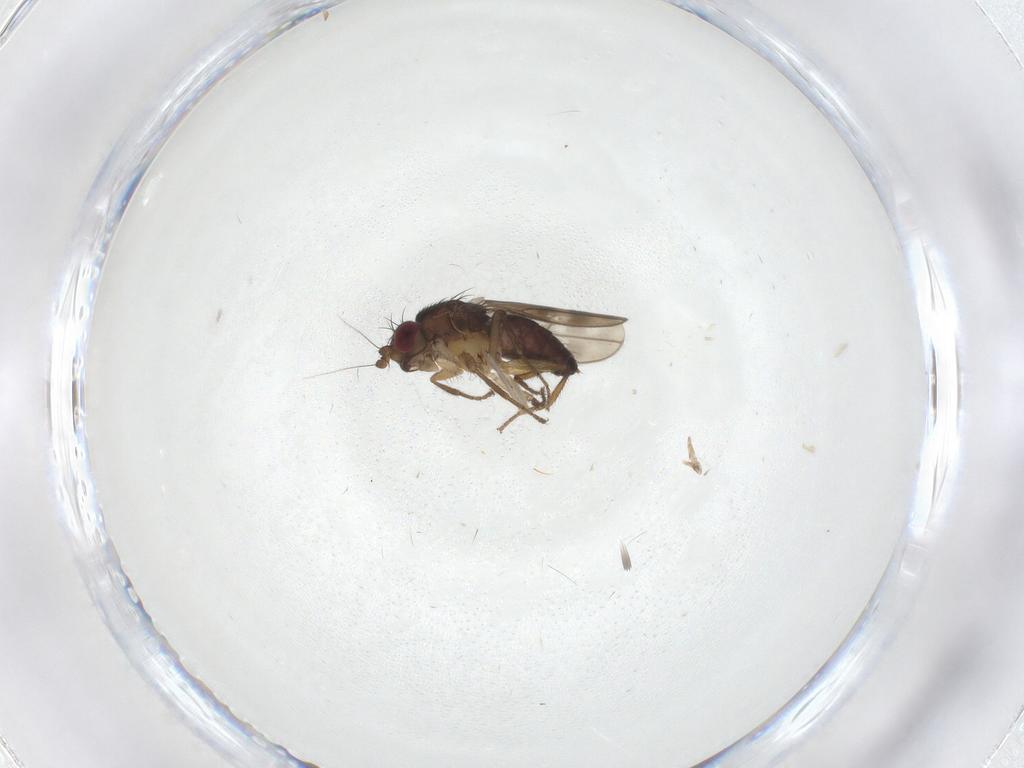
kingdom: Animalia
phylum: Arthropoda
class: Insecta
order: Diptera
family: Sphaeroceridae
